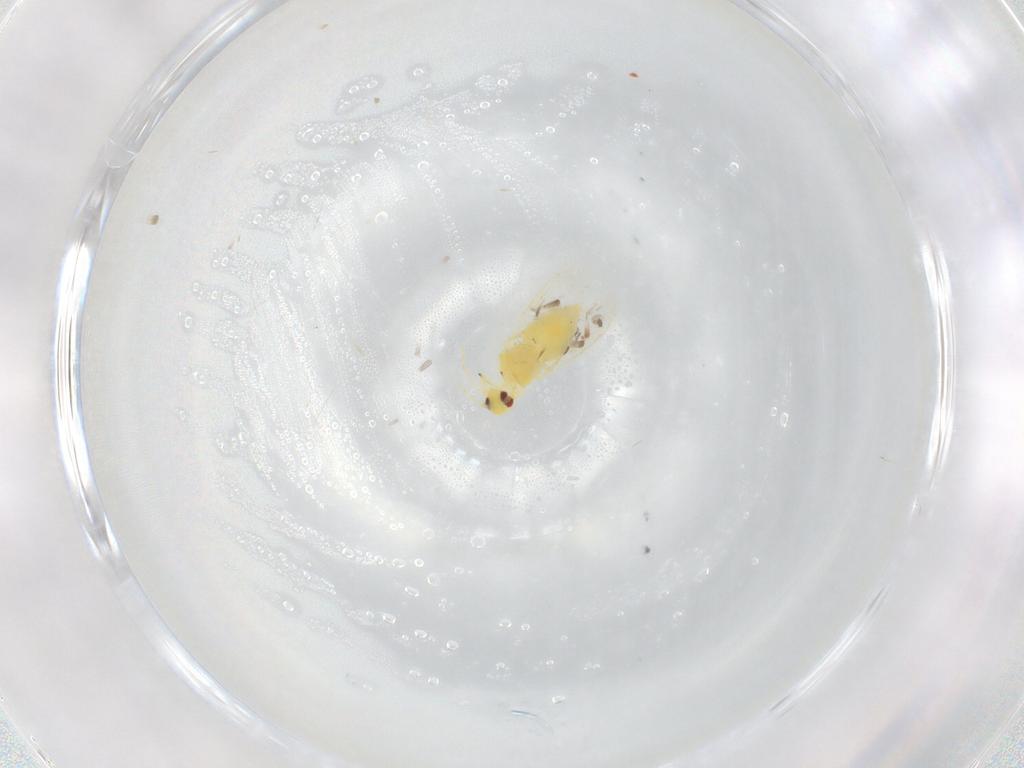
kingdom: Animalia
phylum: Arthropoda
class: Insecta
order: Hemiptera
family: Aleyrodidae
